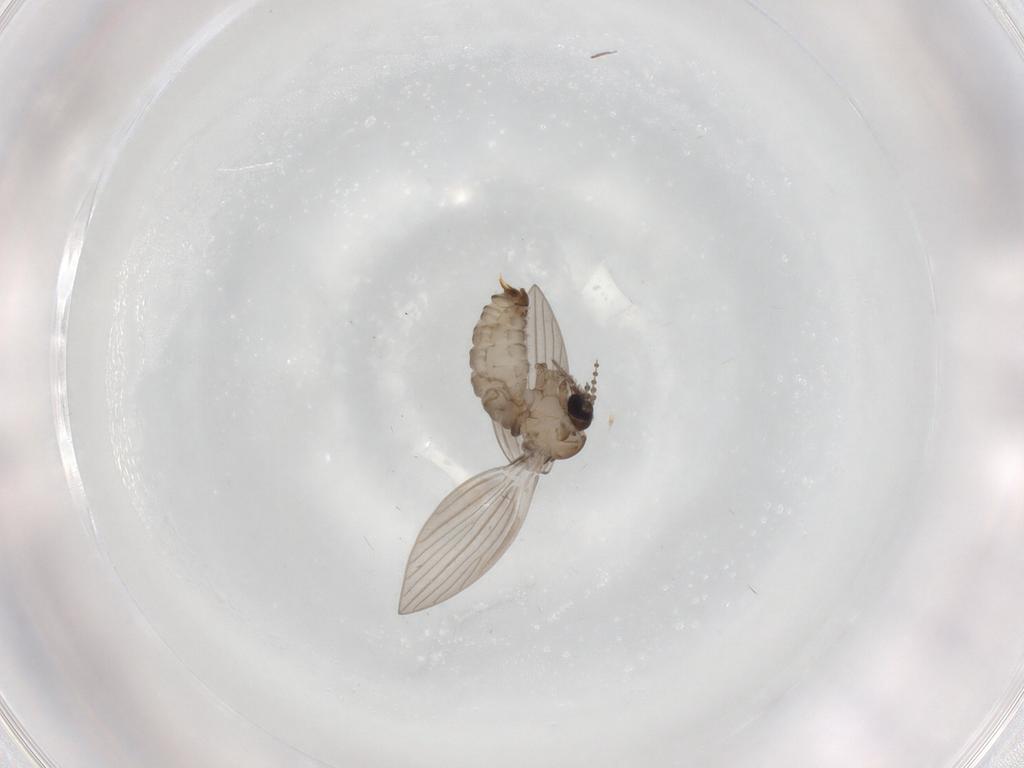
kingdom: Animalia
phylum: Arthropoda
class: Insecta
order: Diptera
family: Psychodidae
